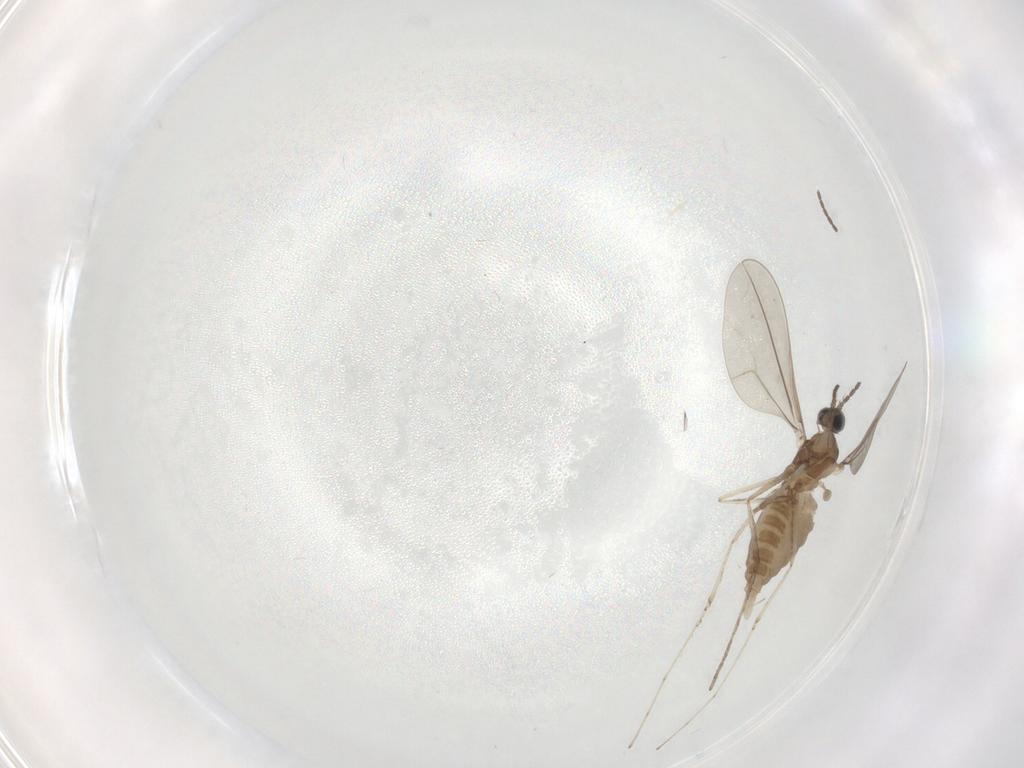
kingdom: Animalia
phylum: Arthropoda
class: Insecta
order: Diptera
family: Cecidomyiidae
